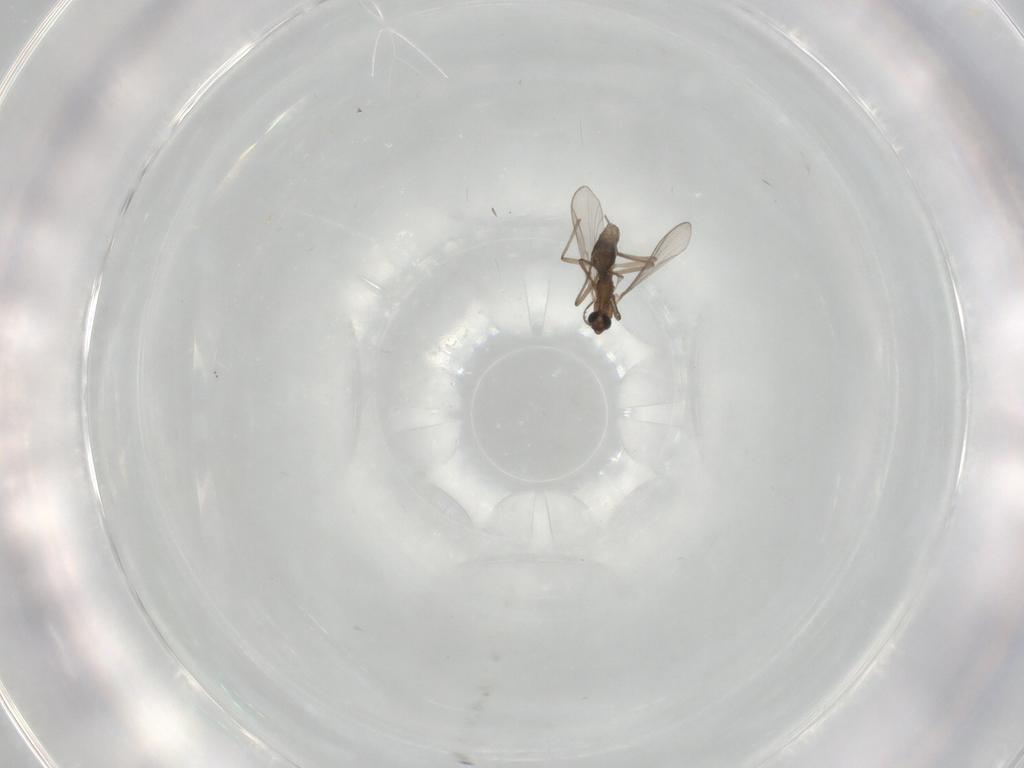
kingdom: Animalia
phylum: Arthropoda
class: Insecta
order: Diptera
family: Chironomidae
